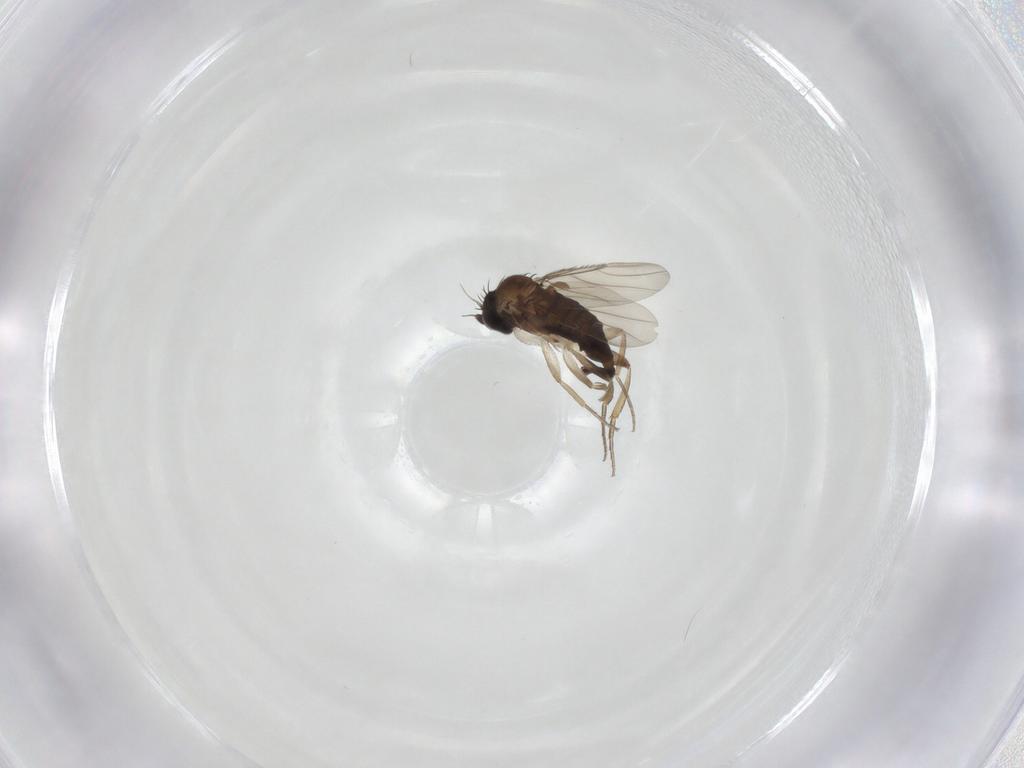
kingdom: Animalia
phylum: Arthropoda
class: Insecta
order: Diptera
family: Phoridae
